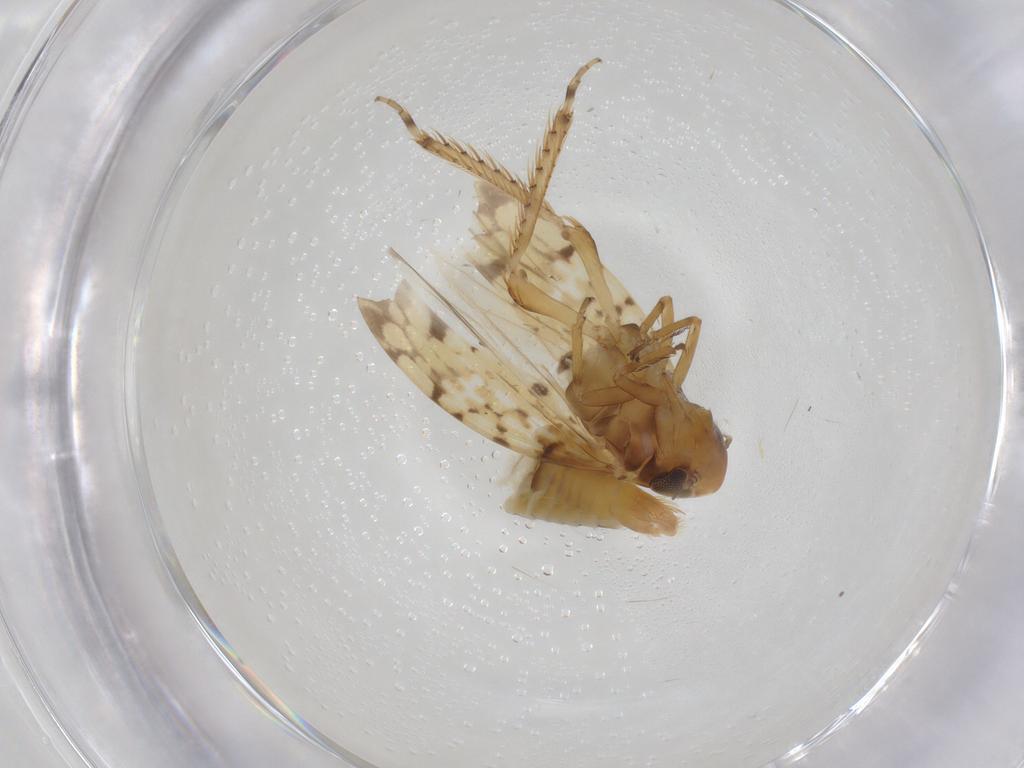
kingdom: Animalia
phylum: Arthropoda
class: Insecta
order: Hemiptera
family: Cicadellidae
